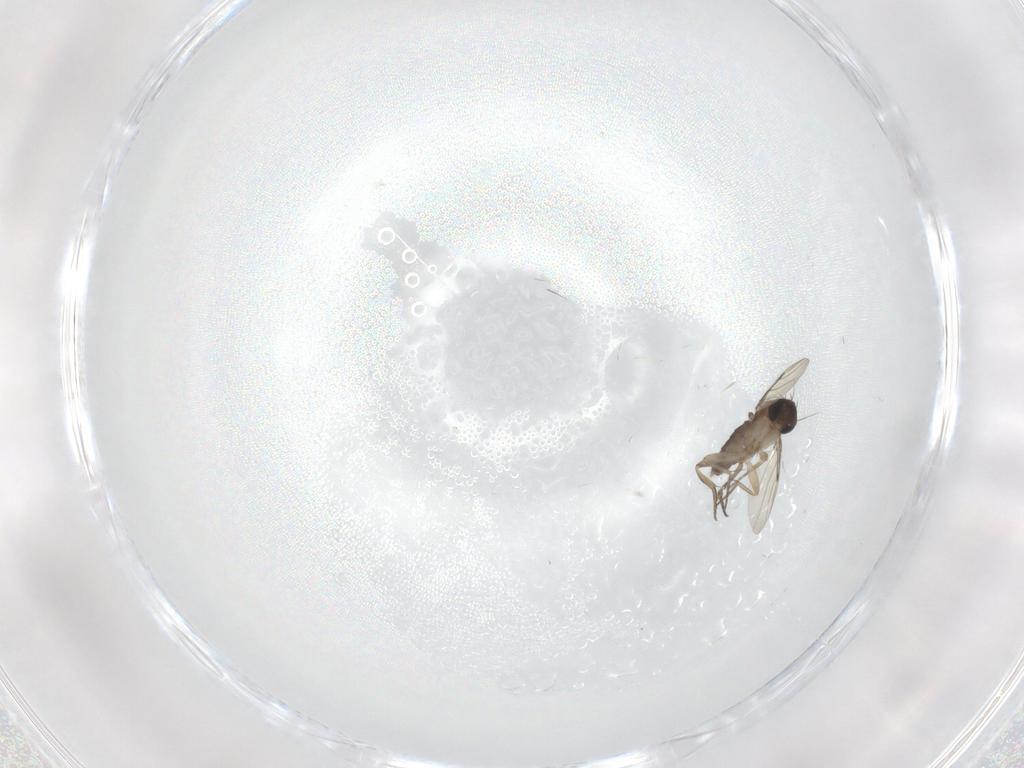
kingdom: Animalia
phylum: Arthropoda
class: Insecta
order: Diptera
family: Phoridae
